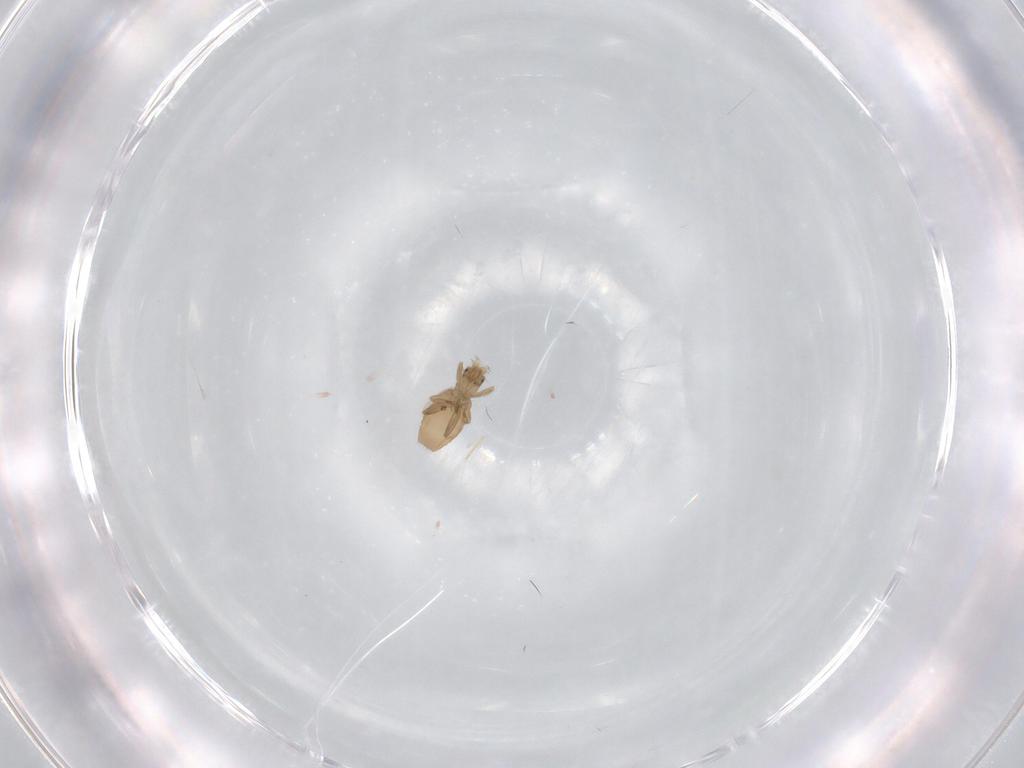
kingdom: Animalia
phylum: Arthropoda
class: Insecta
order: Diptera
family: Phoridae
